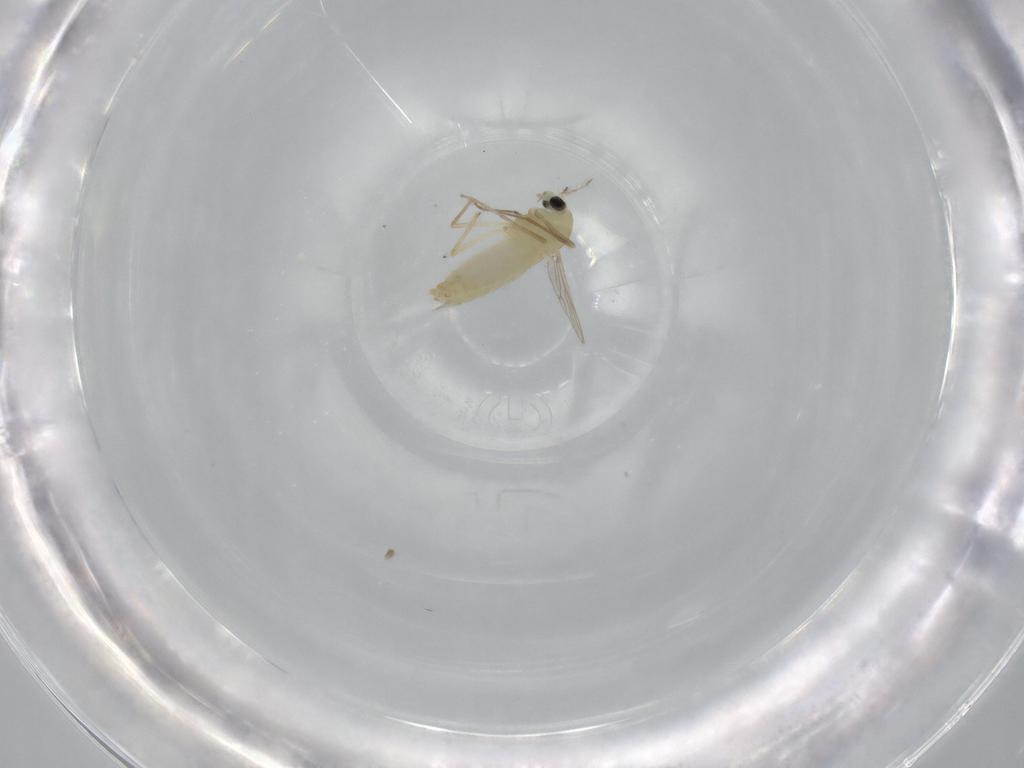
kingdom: Animalia
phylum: Arthropoda
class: Insecta
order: Diptera
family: Chironomidae
